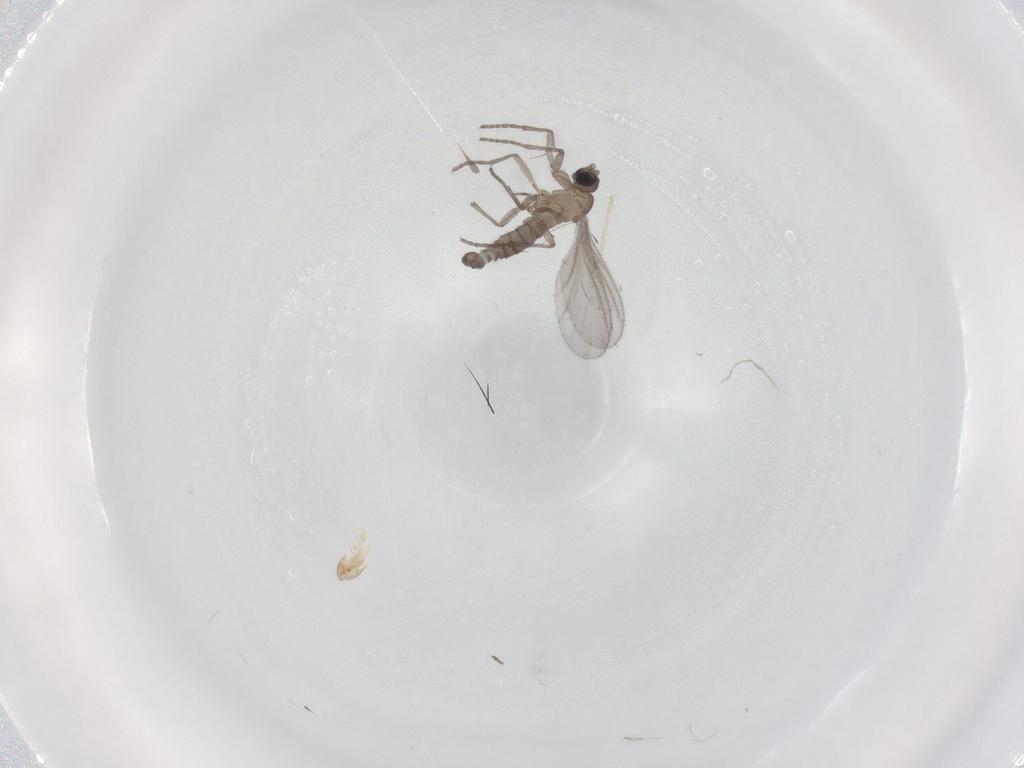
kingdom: Animalia
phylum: Arthropoda
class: Insecta
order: Diptera
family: Sciaridae
